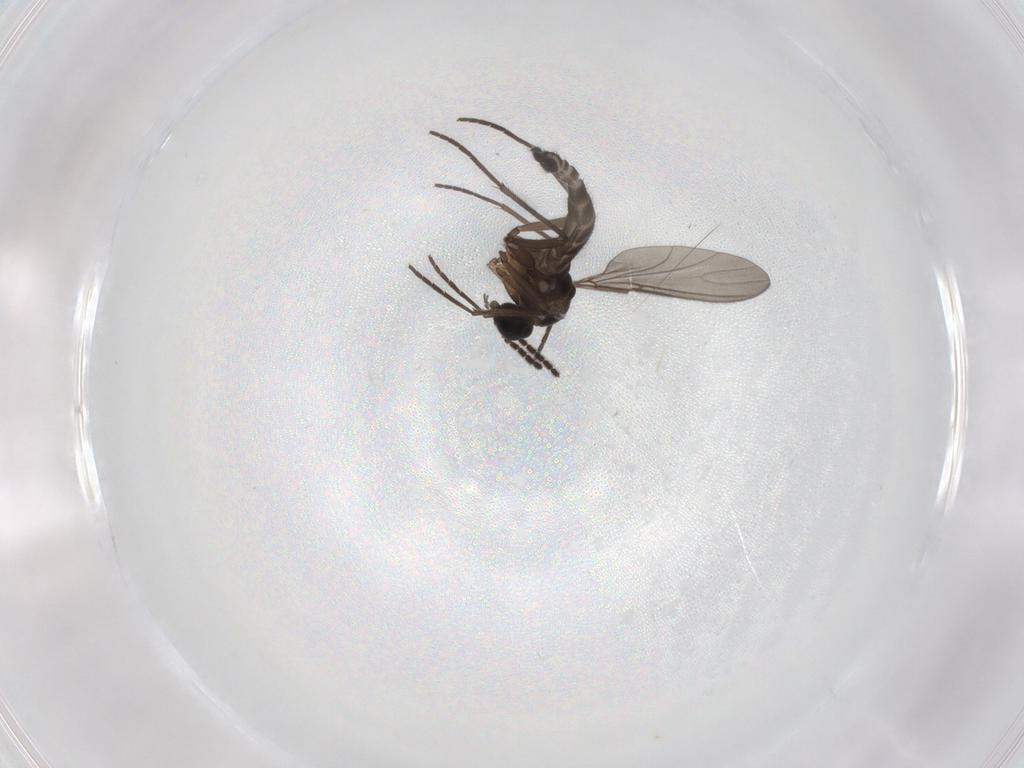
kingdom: Animalia
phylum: Arthropoda
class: Insecta
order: Diptera
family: Sciaridae
